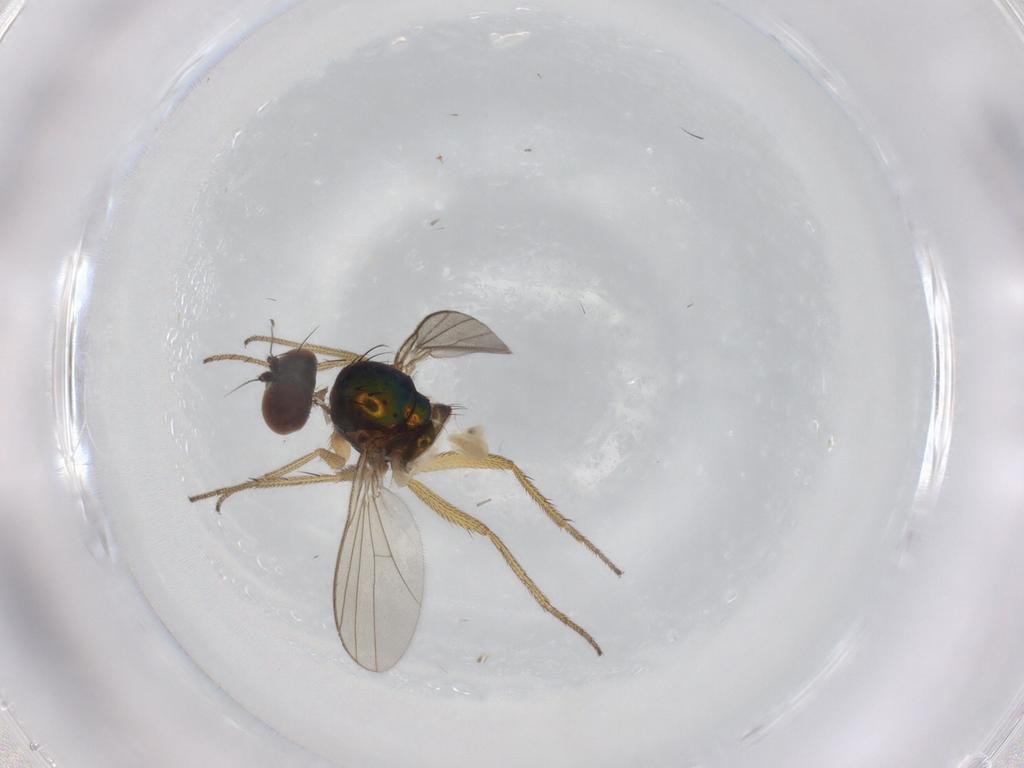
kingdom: Animalia
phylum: Arthropoda
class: Insecta
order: Diptera
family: Dolichopodidae
